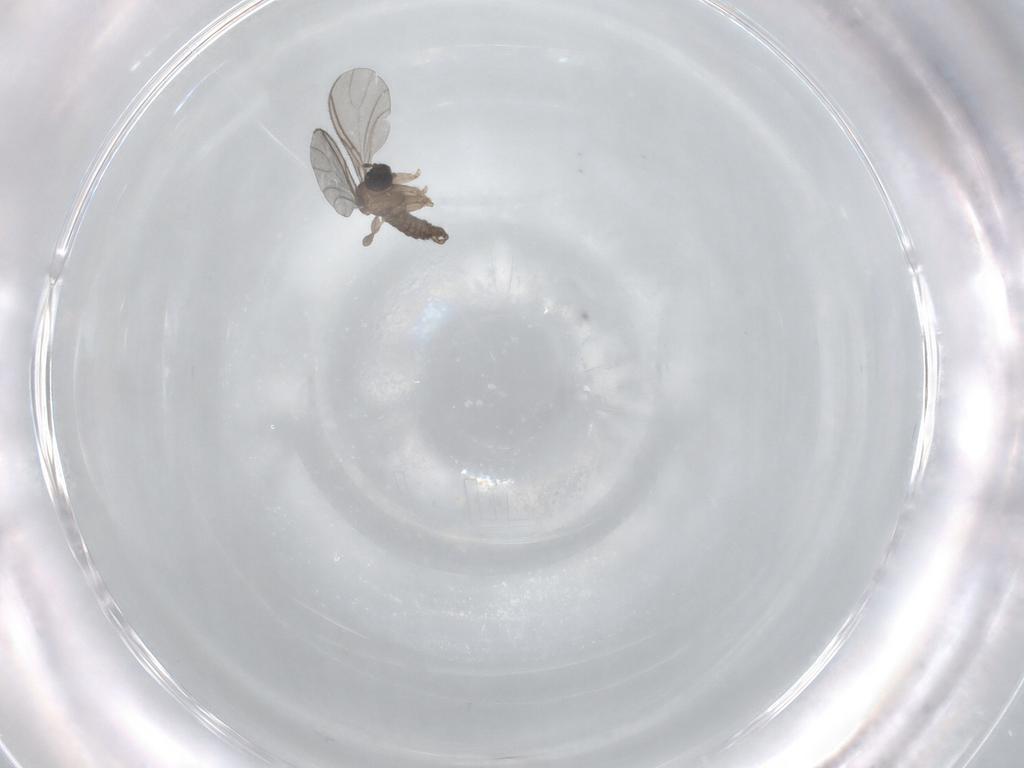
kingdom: Animalia
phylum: Arthropoda
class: Insecta
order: Diptera
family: Sciaridae
